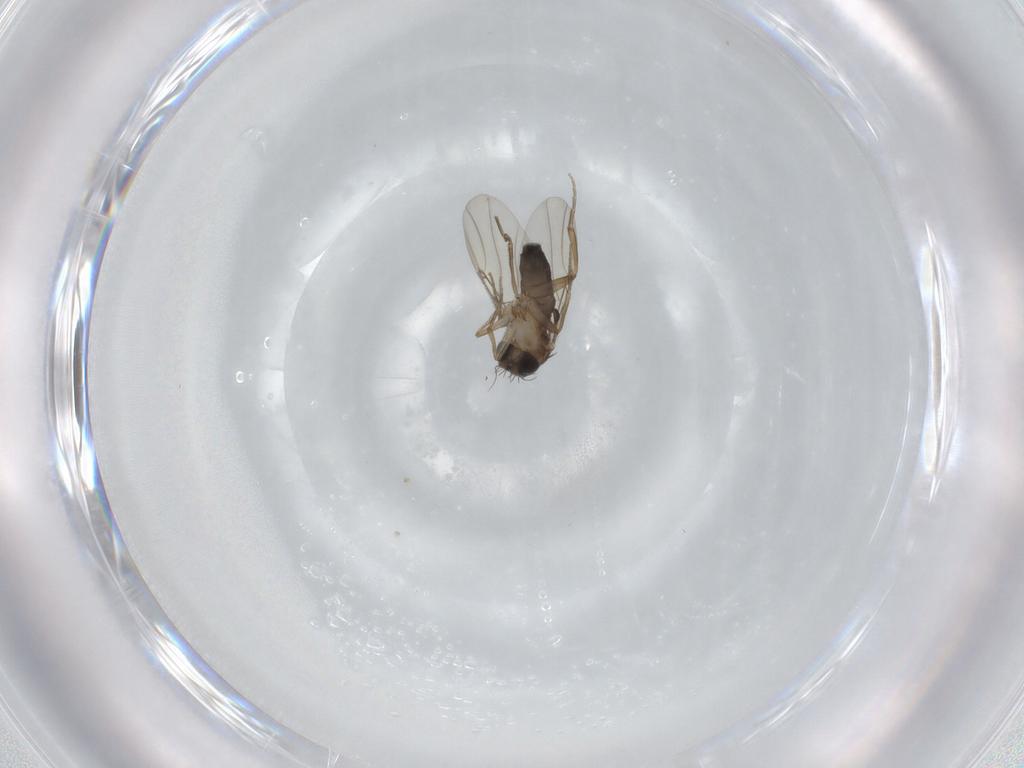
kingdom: Animalia
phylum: Arthropoda
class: Insecta
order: Diptera
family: Phoridae
